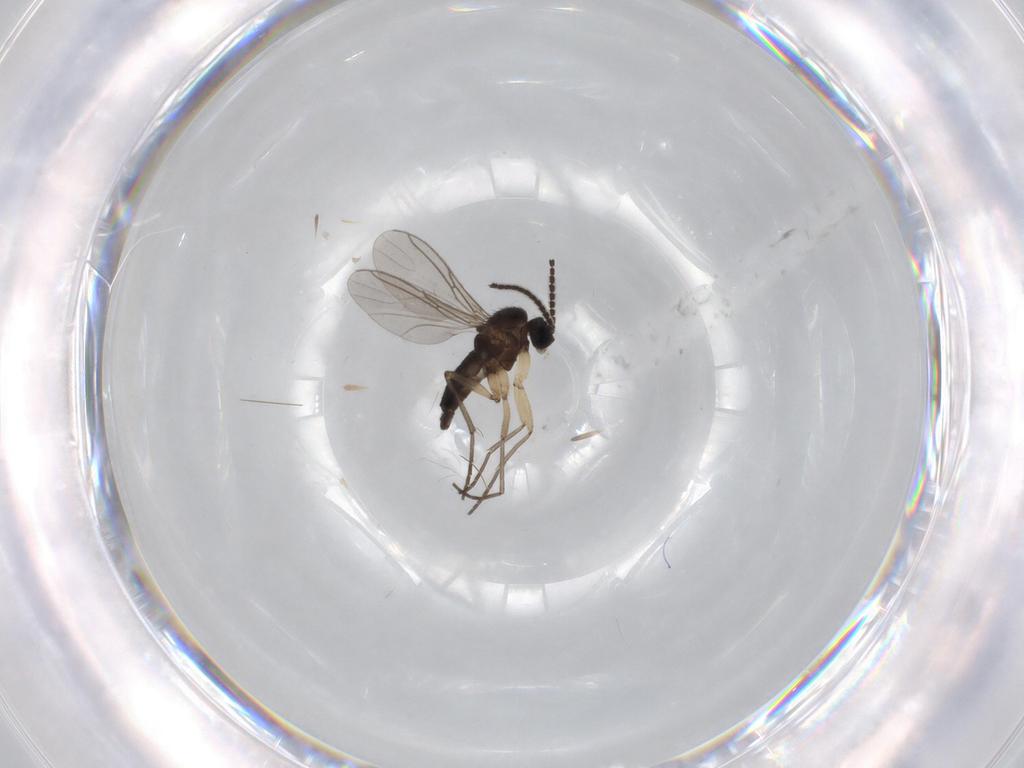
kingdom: Animalia
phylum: Arthropoda
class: Insecta
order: Diptera
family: Sciaridae
